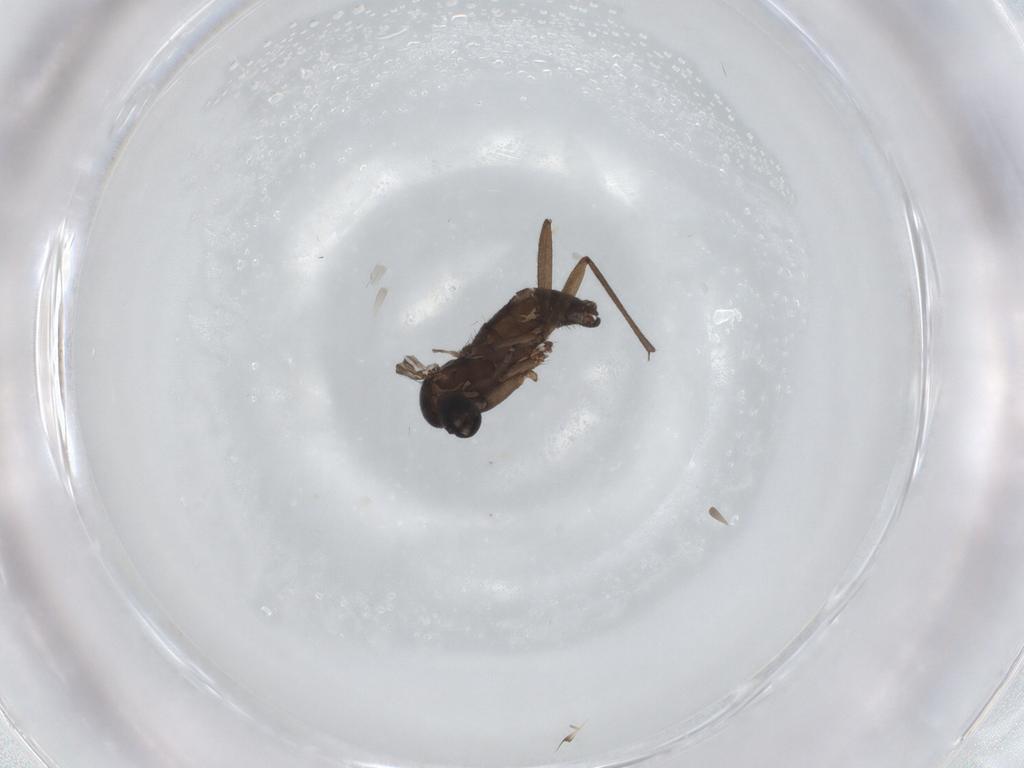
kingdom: Animalia
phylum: Arthropoda
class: Insecta
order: Diptera
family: Sciaridae
